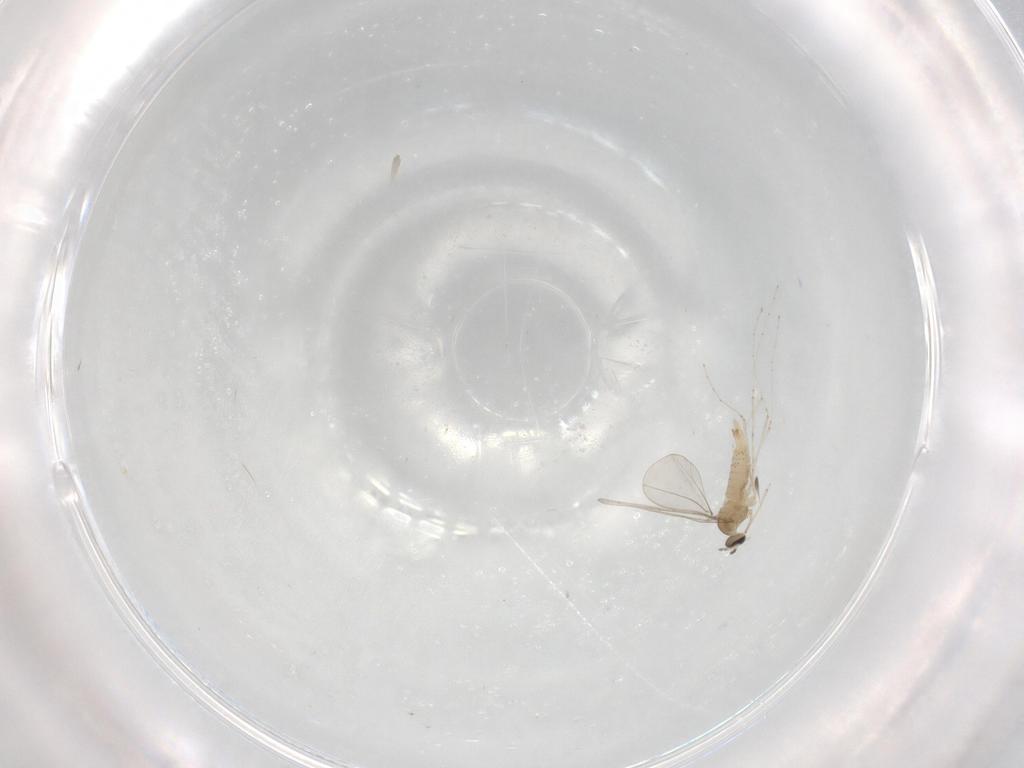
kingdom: Animalia
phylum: Arthropoda
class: Insecta
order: Diptera
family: Cecidomyiidae
